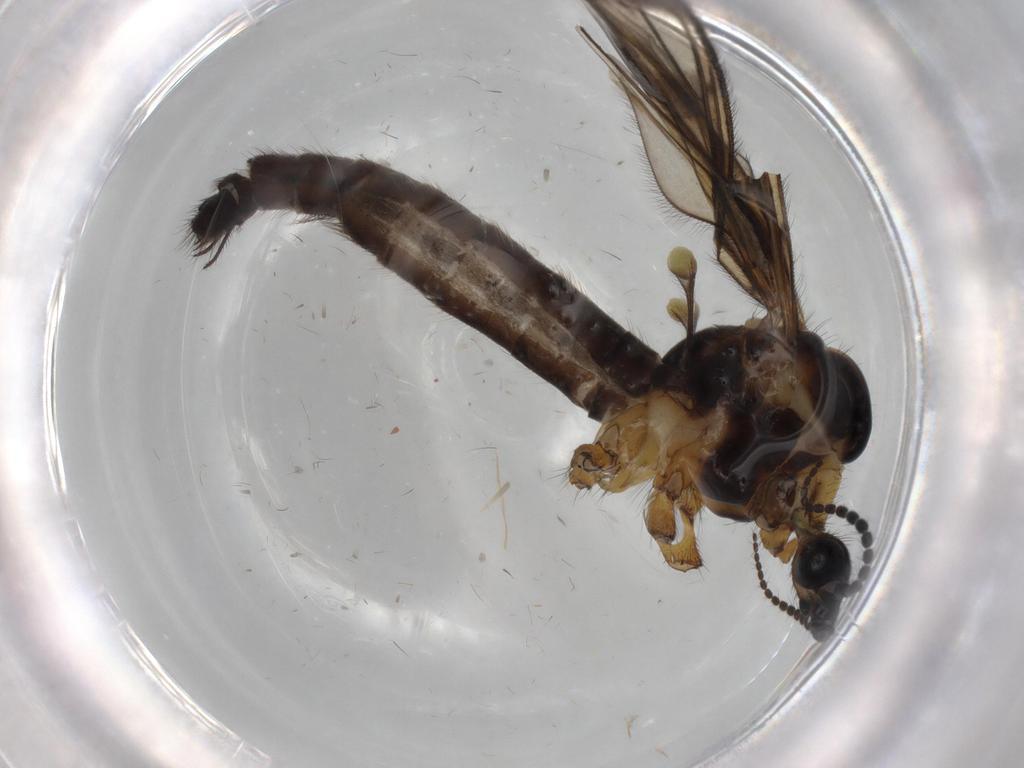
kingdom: Animalia
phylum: Arthropoda
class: Insecta
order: Diptera
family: Limoniidae
